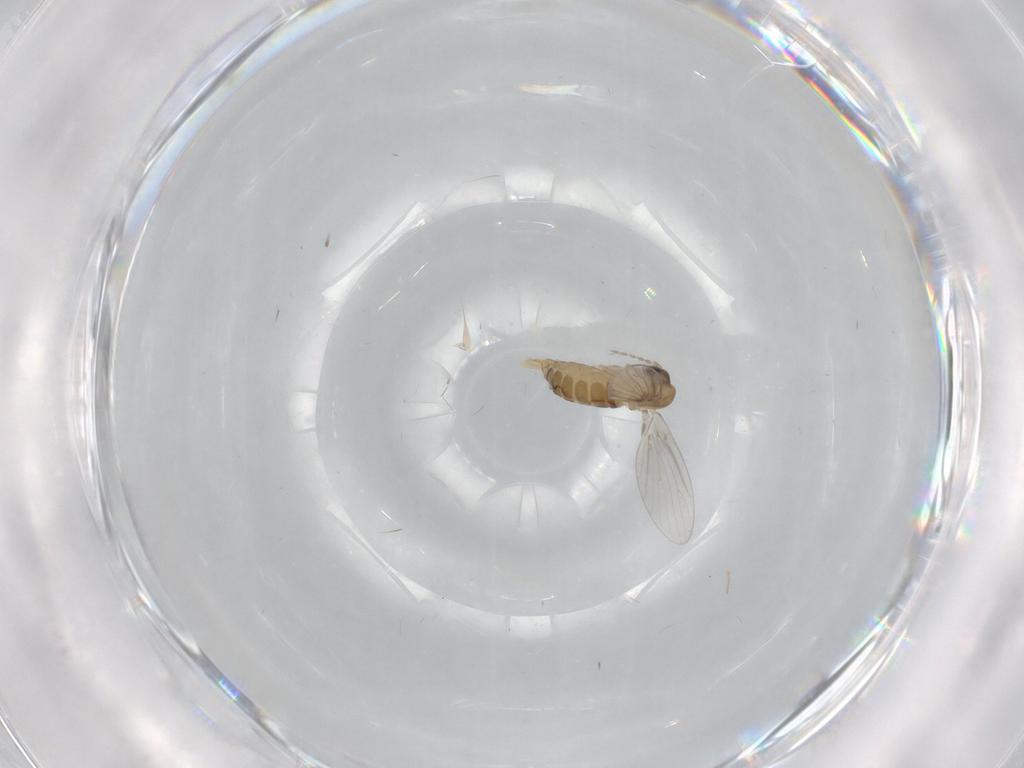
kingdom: Animalia
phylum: Arthropoda
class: Insecta
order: Diptera
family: Psychodidae
